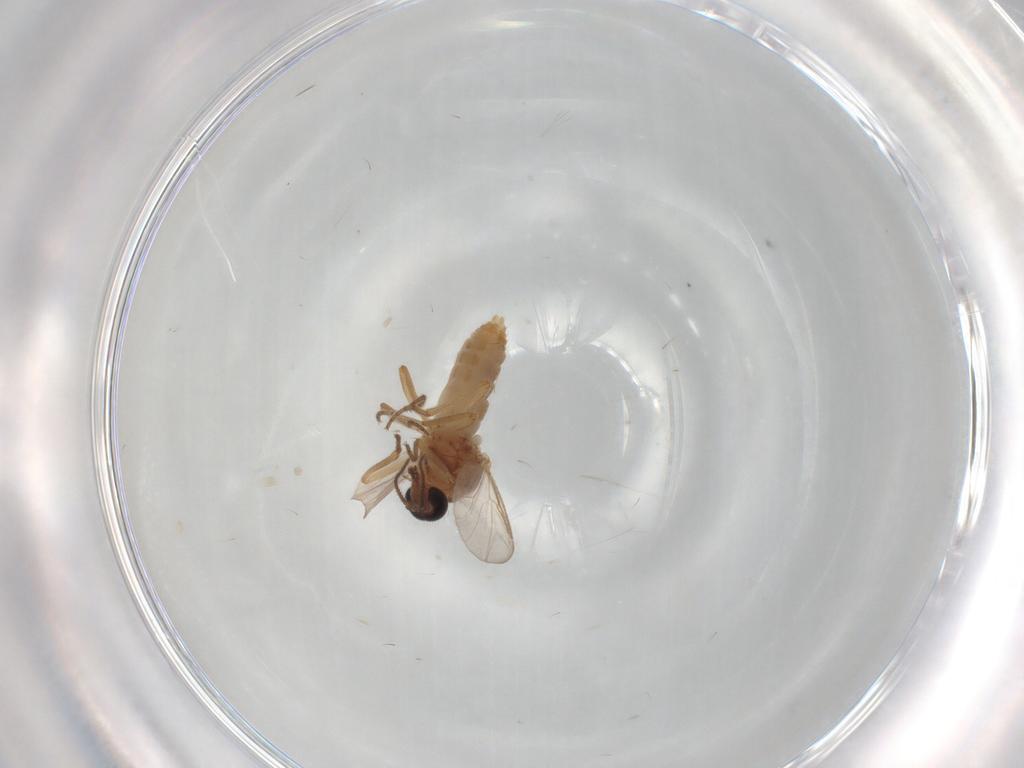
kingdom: Animalia
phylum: Arthropoda
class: Insecta
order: Diptera
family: Ceratopogonidae
